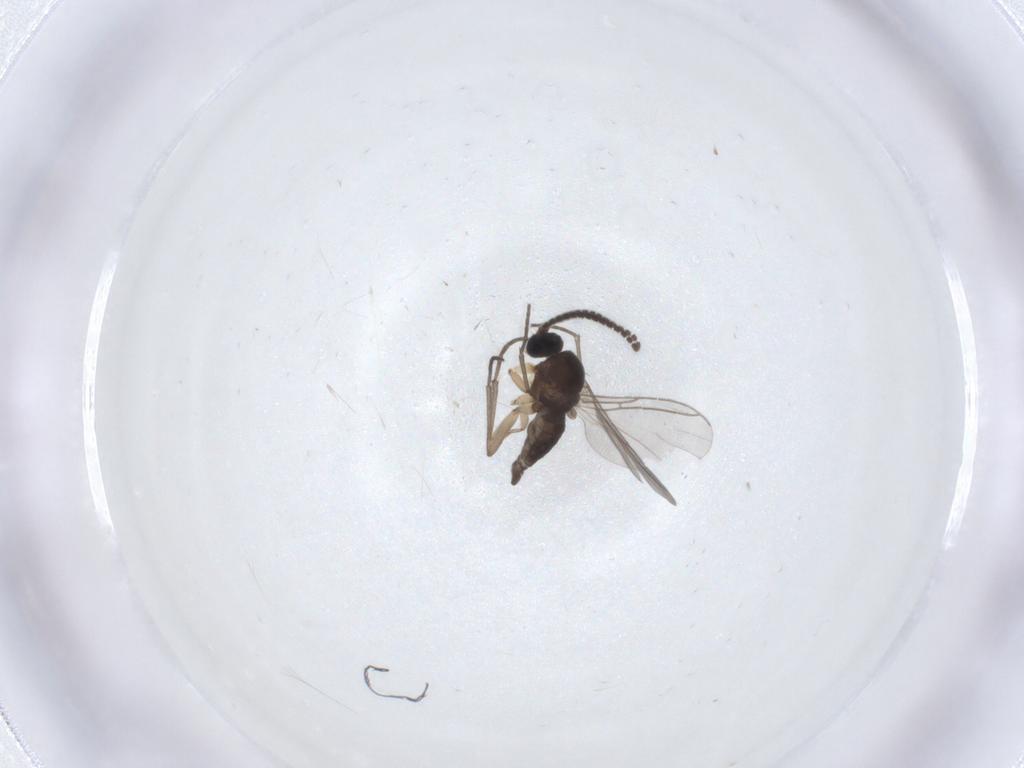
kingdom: Animalia
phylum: Arthropoda
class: Insecta
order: Diptera
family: Sciaridae
